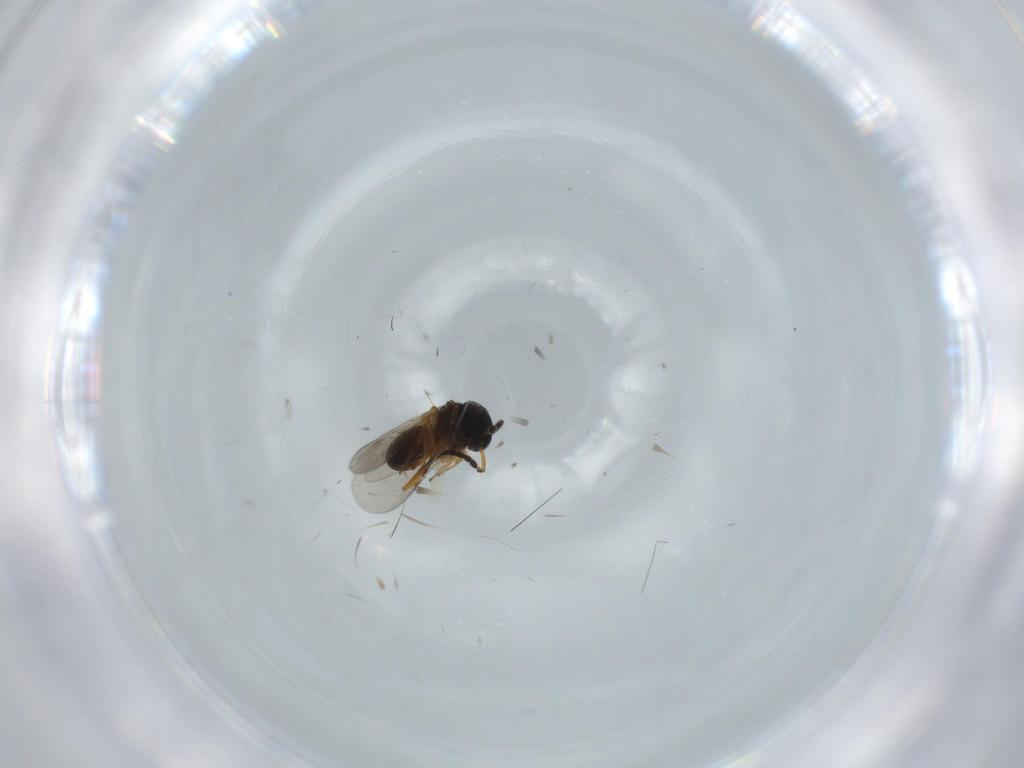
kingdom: Animalia
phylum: Arthropoda
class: Insecta
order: Hymenoptera
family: Scelionidae
